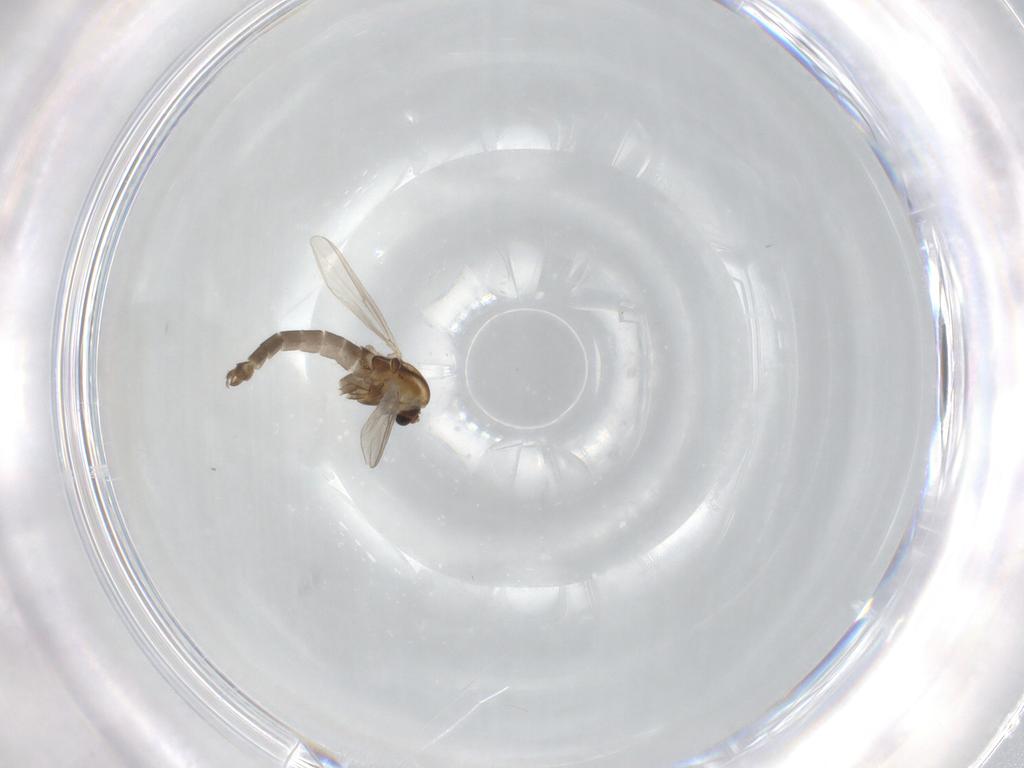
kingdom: Animalia
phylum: Arthropoda
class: Insecta
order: Diptera
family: Chironomidae
